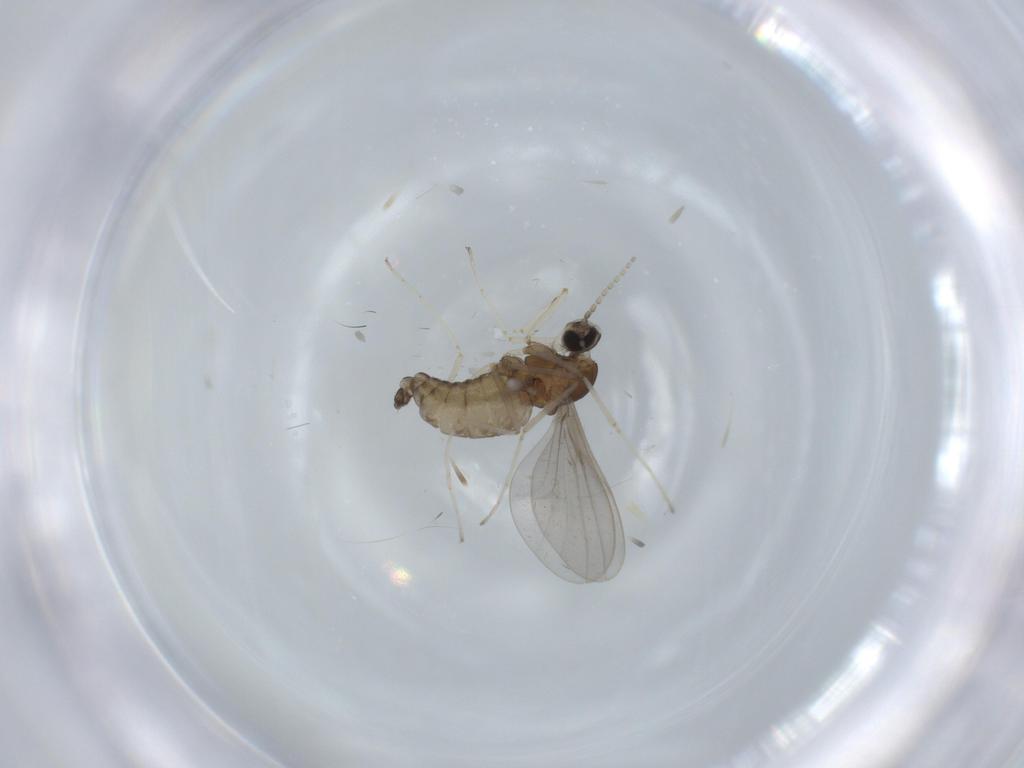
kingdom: Animalia
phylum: Arthropoda
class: Insecta
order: Diptera
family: Cecidomyiidae
